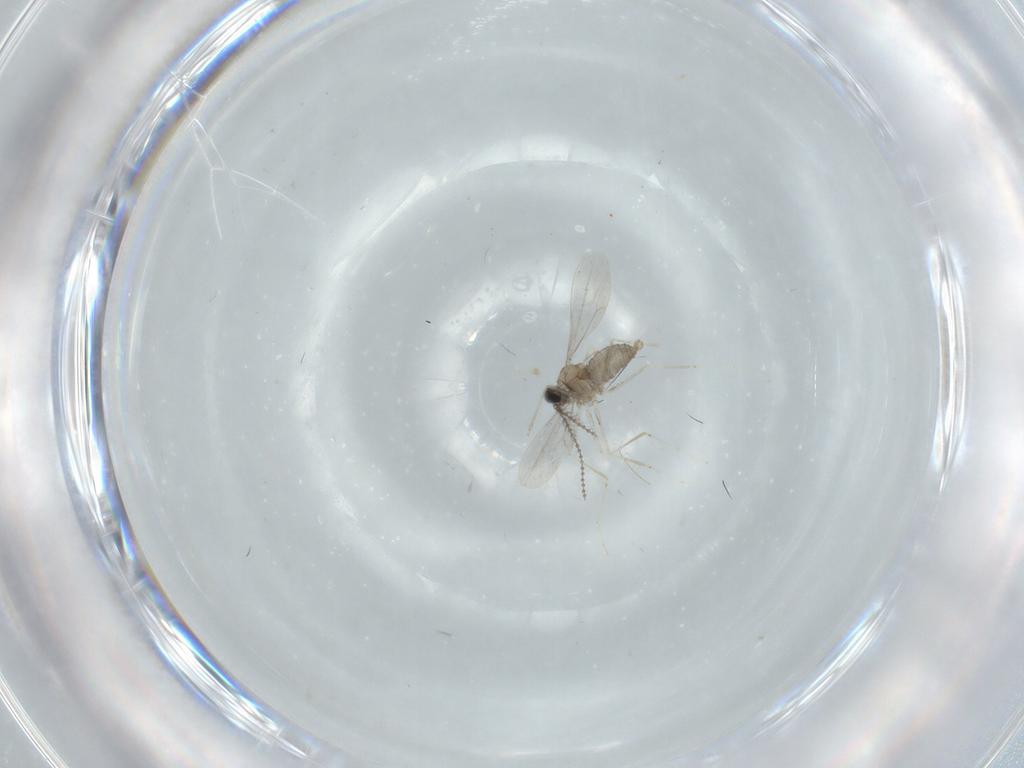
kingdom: Animalia
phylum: Arthropoda
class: Insecta
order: Diptera
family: Cecidomyiidae
